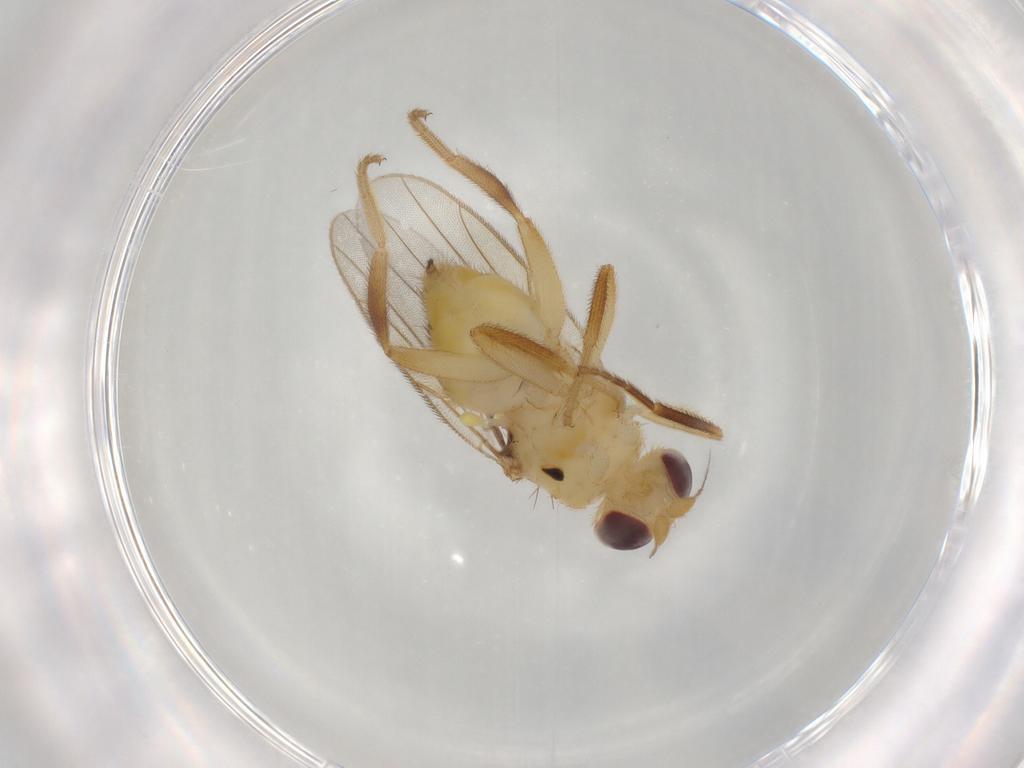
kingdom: Animalia
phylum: Arthropoda
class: Insecta
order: Diptera
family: Chloropidae
